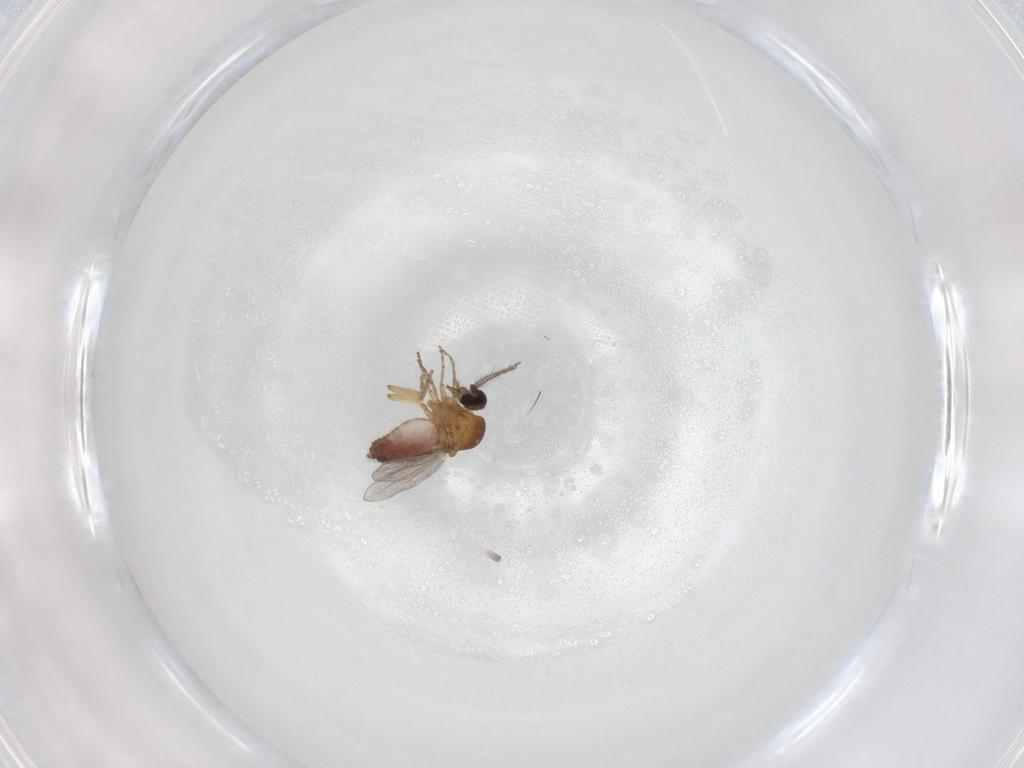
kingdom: Animalia
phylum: Arthropoda
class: Insecta
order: Diptera
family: Ceratopogonidae
